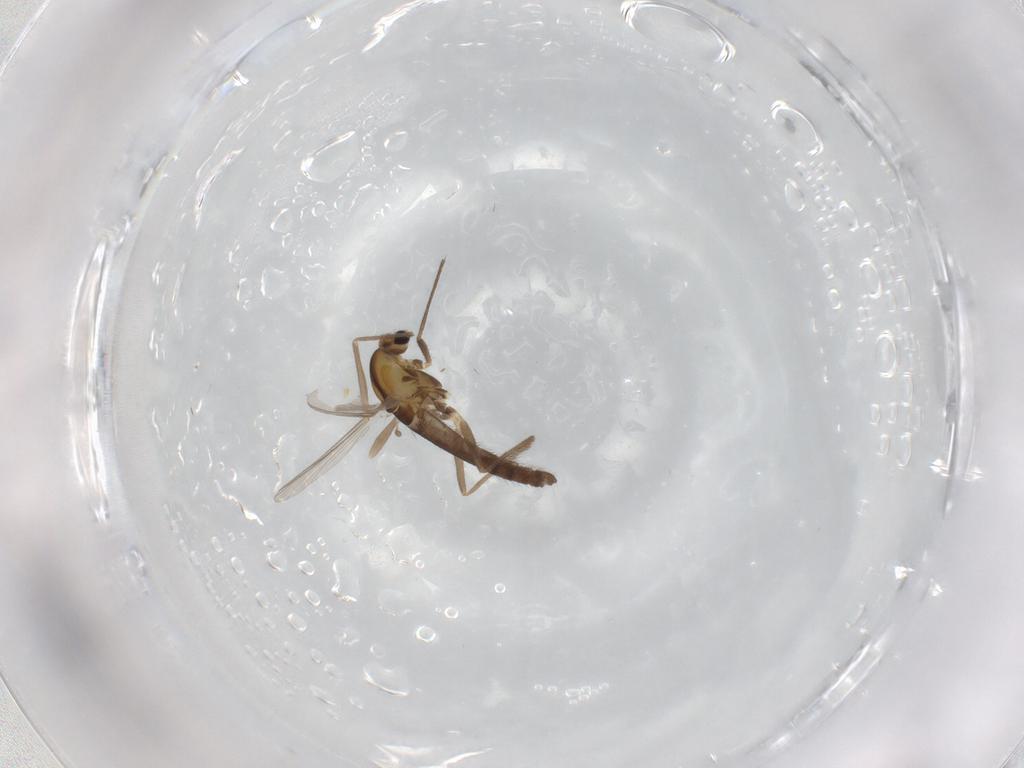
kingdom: Animalia
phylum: Arthropoda
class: Insecta
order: Diptera
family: Chironomidae
